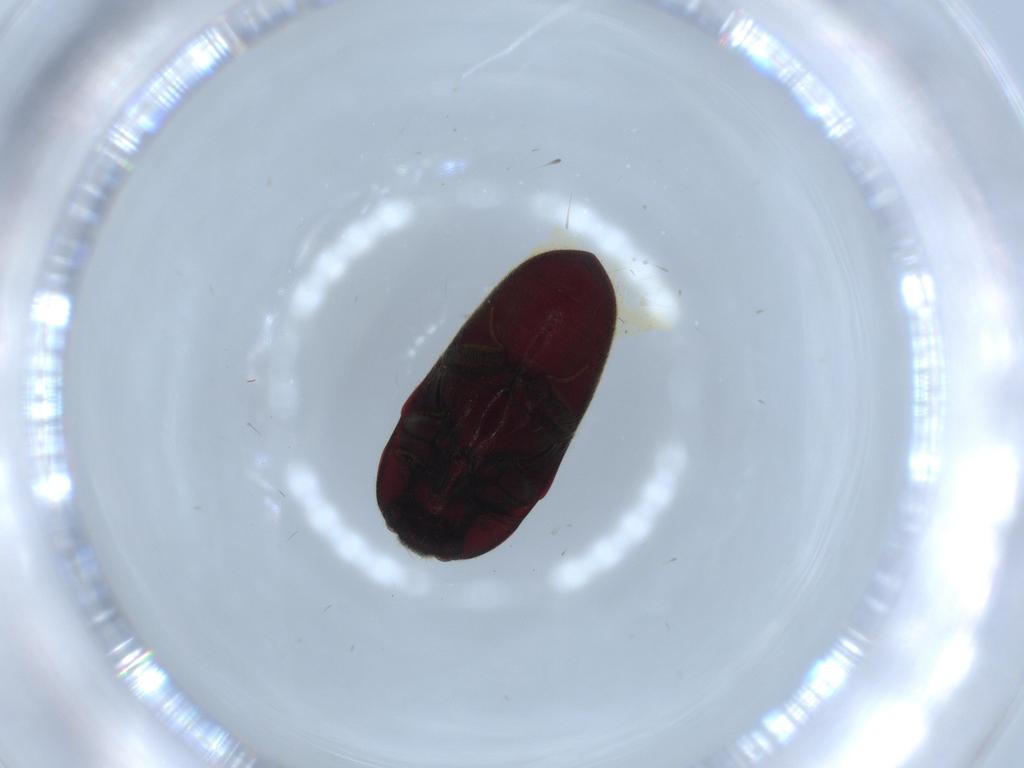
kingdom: Animalia
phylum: Arthropoda
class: Insecta
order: Coleoptera
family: Throscidae
